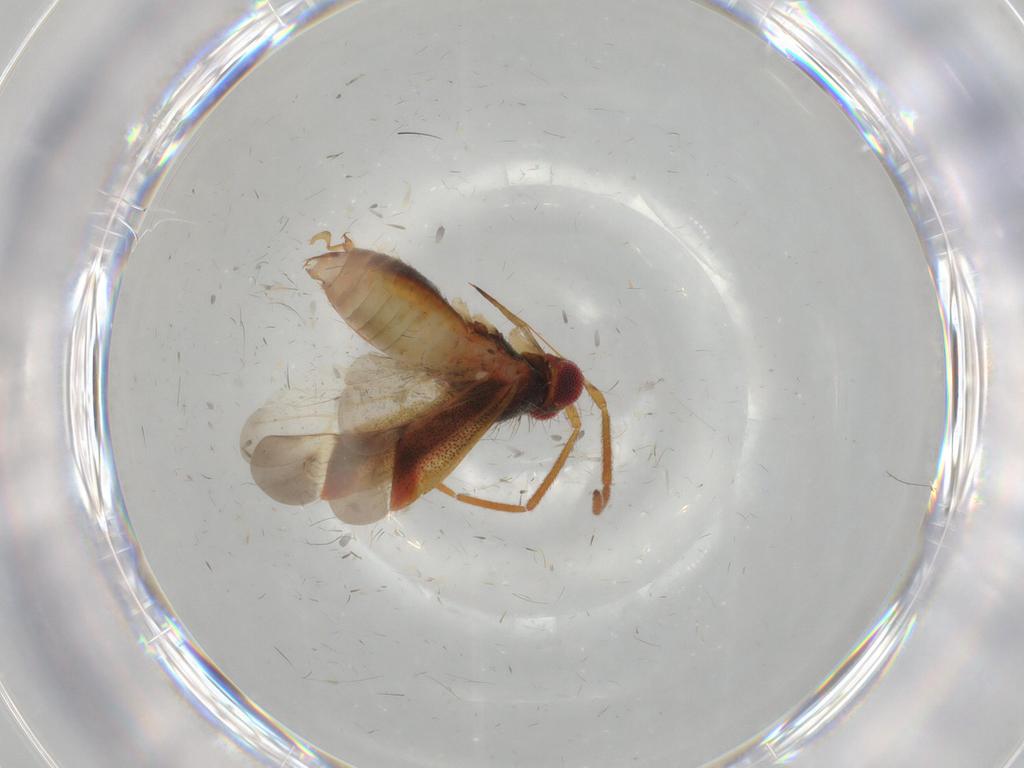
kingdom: Animalia
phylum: Arthropoda
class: Insecta
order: Hemiptera
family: Miridae
